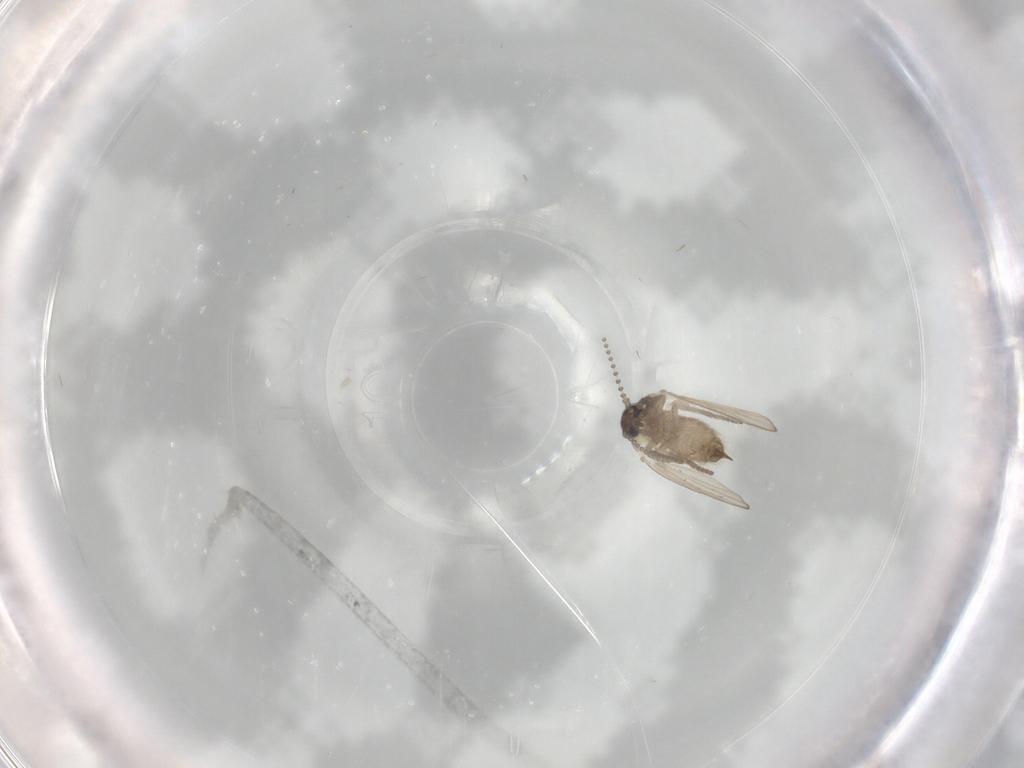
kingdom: Animalia
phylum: Arthropoda
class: Insecta
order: Diptera
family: Psychodidae
